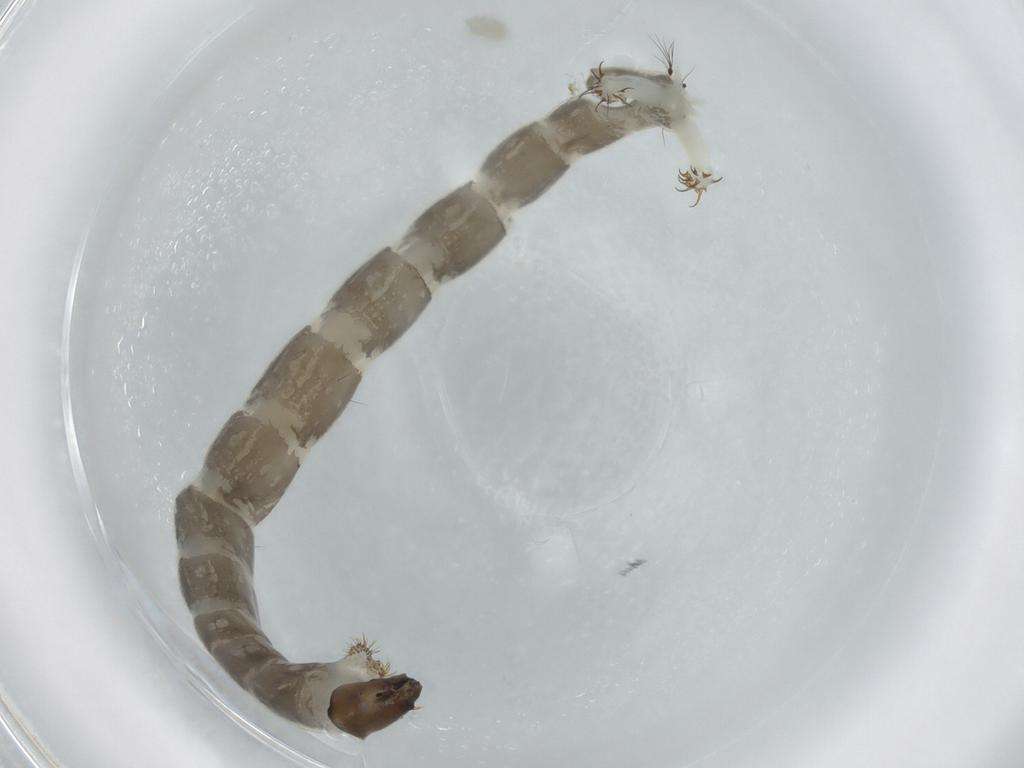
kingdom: Animalia
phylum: Arthropoda
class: Insecta
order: Diptera
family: Chironomidae
